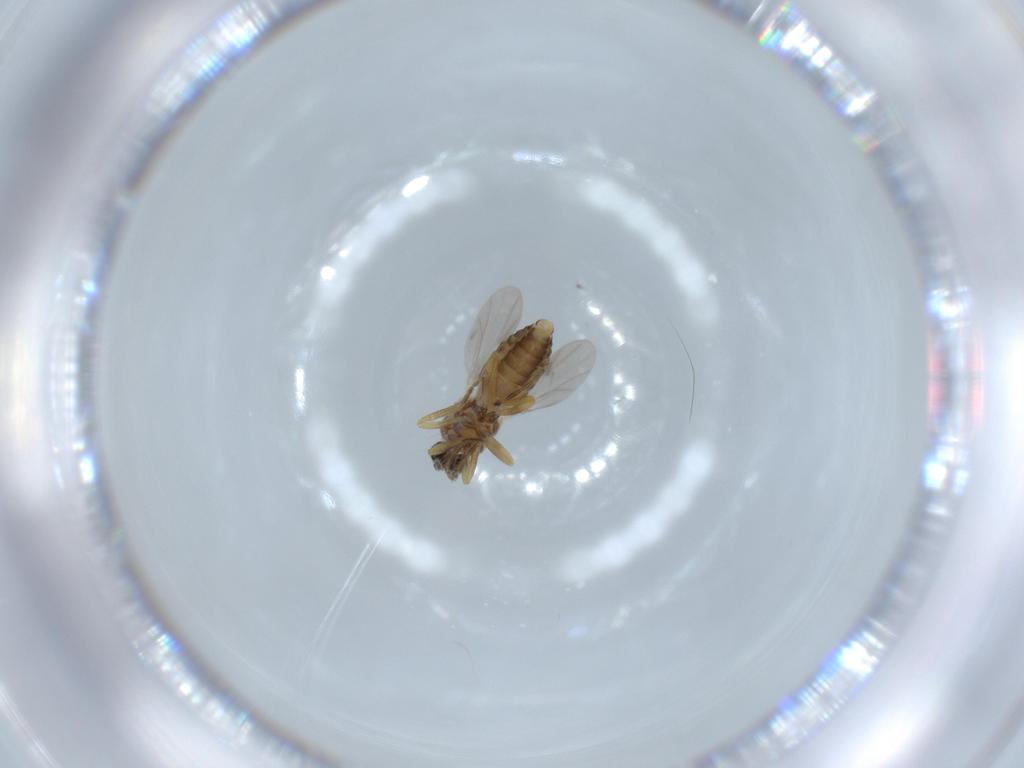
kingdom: Animalia
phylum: Arthropoda
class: Insecta
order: Diptera
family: Ceratopogonidae
